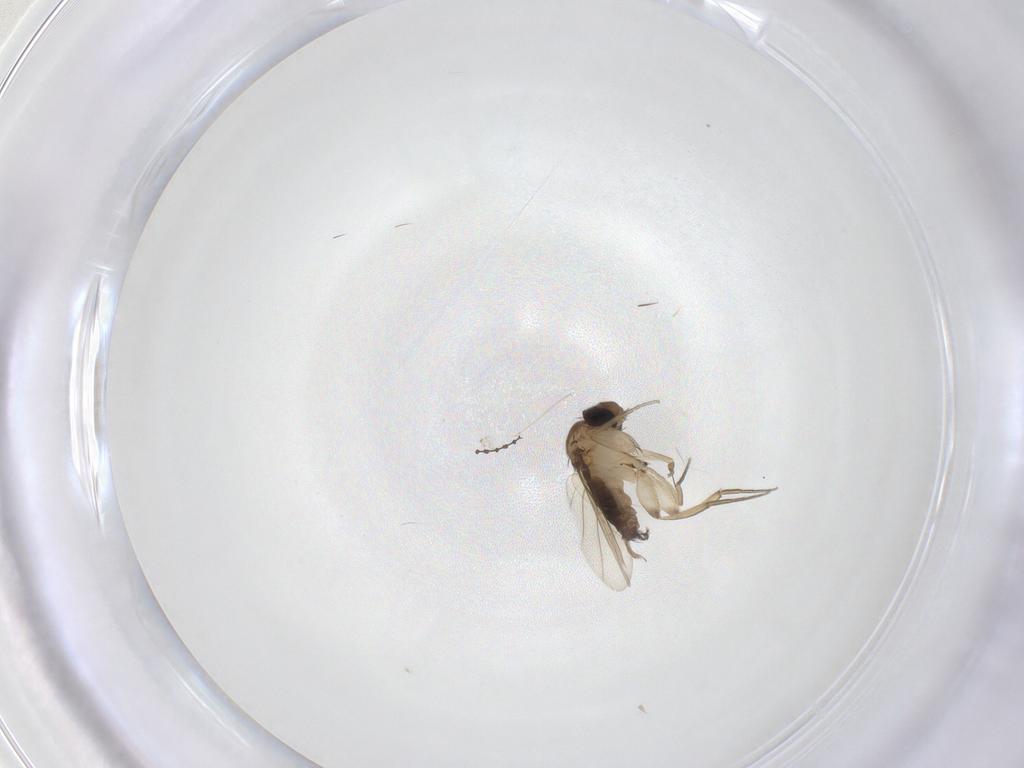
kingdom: Animalia
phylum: Arthropoda
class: Insecta
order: Diptera
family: Phoridae
